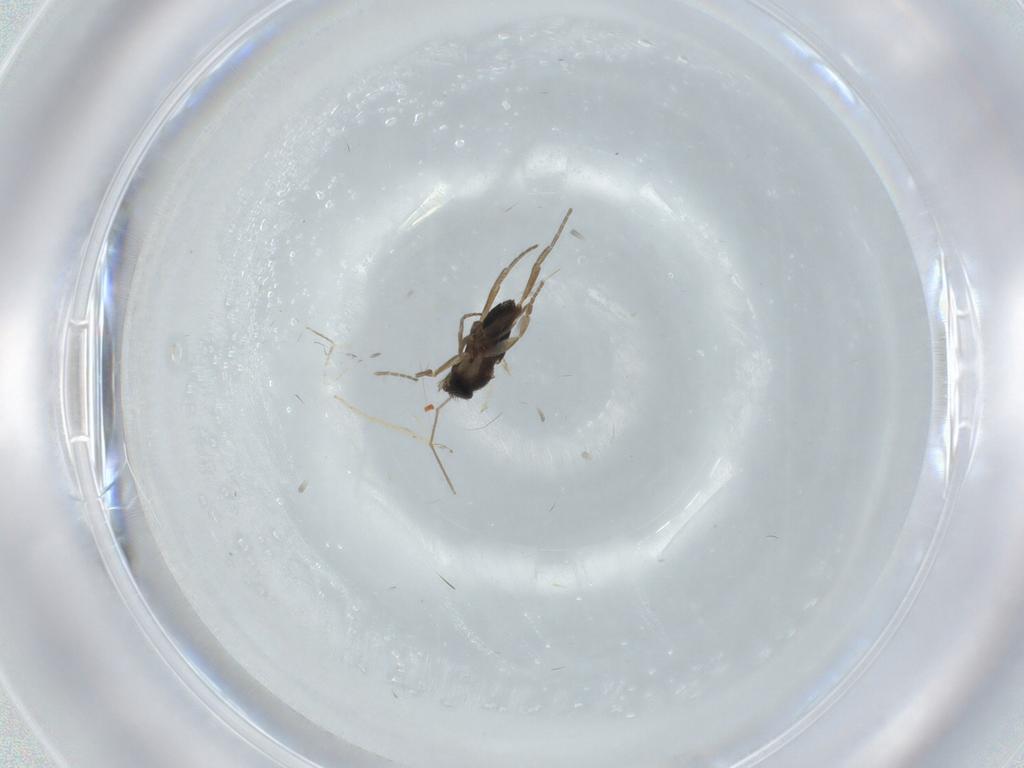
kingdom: Animalia
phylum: Arthropoda
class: Insecta
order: Diptera
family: Phoridae
